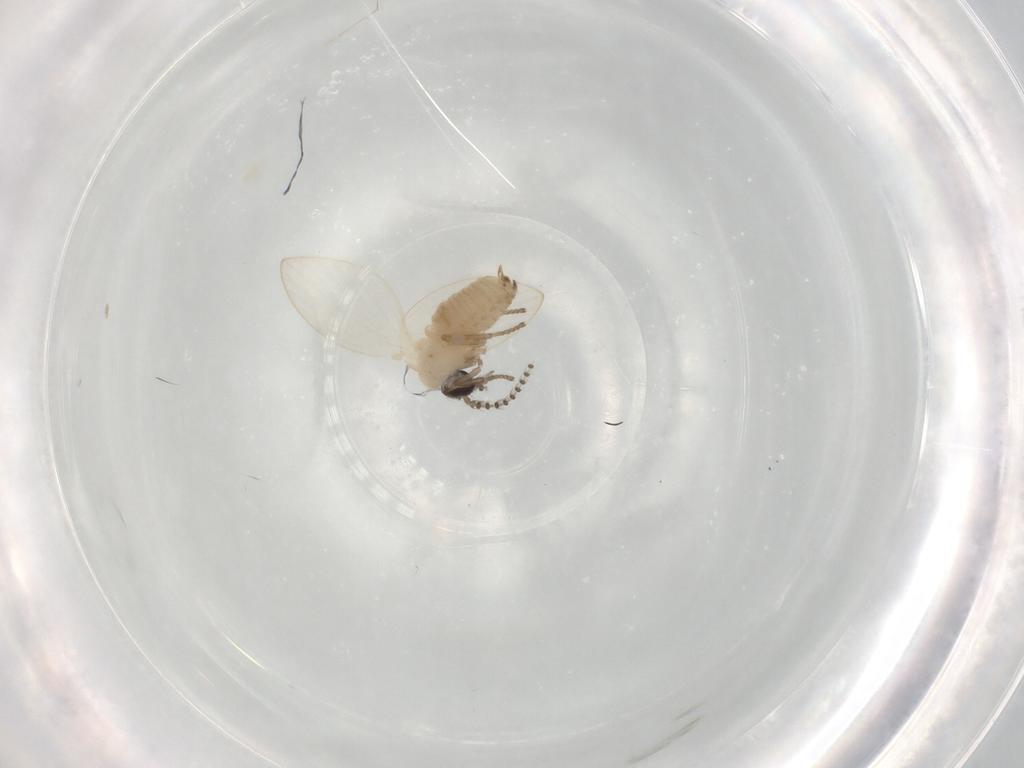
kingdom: Animalia
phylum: Arthropoda
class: Insecta
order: Diptera
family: Psychodidae
